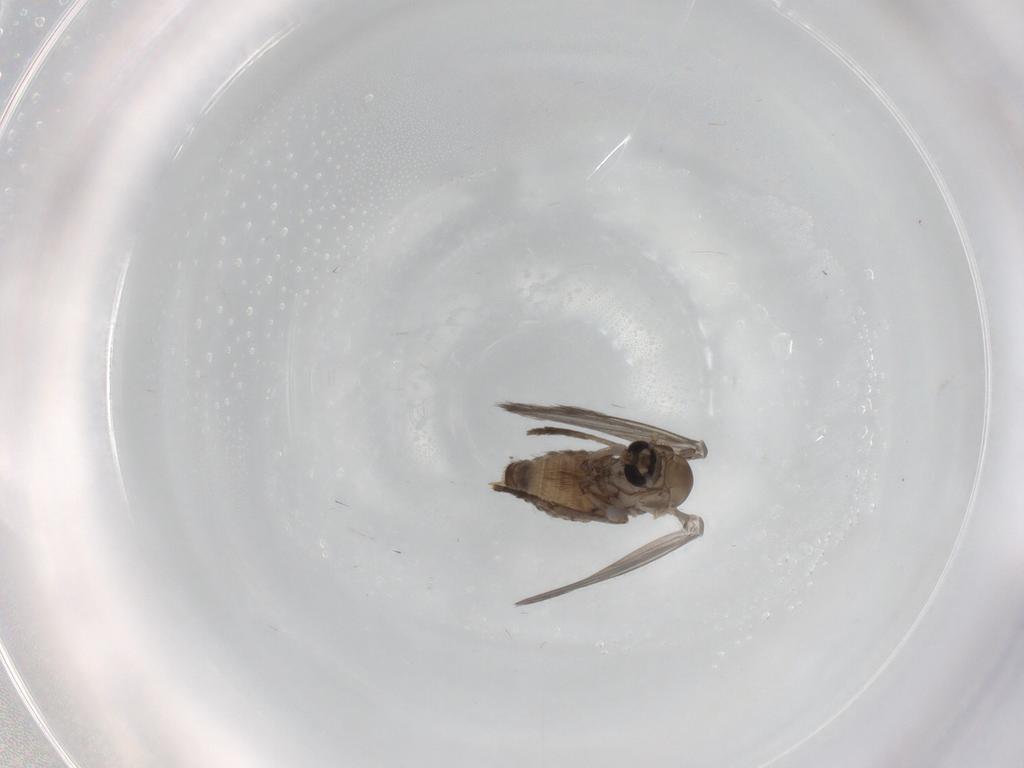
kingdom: Animalia
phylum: Arthropoda
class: Insecta
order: Diptera
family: Psychodidae
